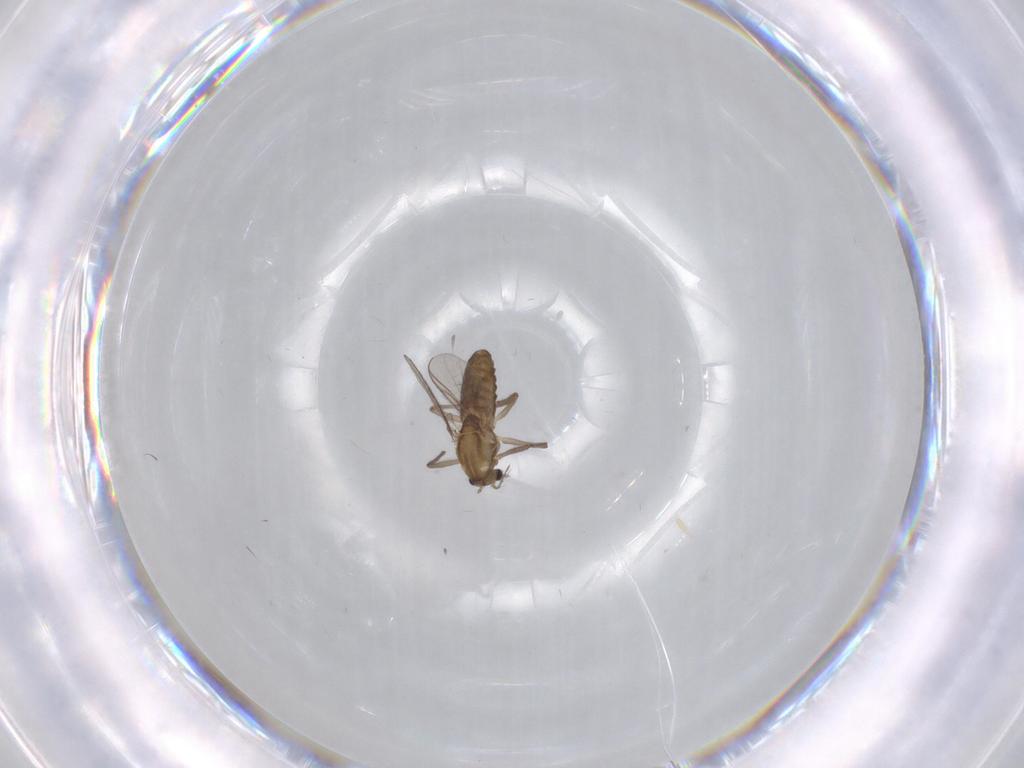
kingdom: Animalia
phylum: Arthropoda
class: Insecta
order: Diptera
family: Chironomidae
